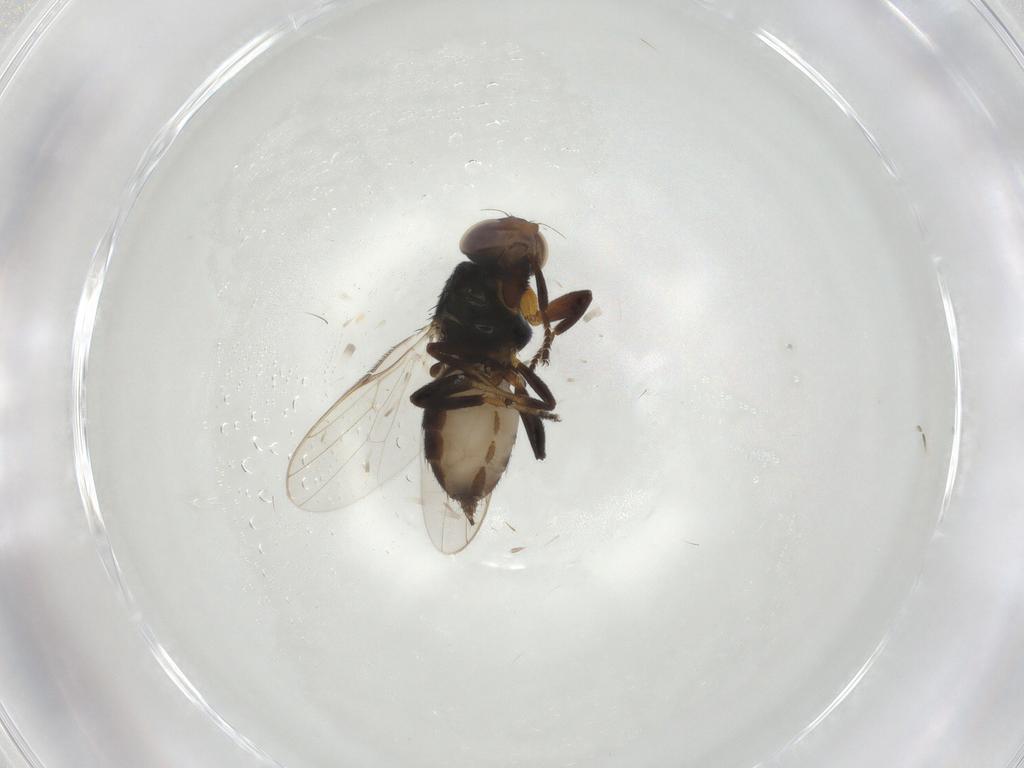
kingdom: Animalia
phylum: Arthropoda
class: Insecta
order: Diptera
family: Chloropidae
